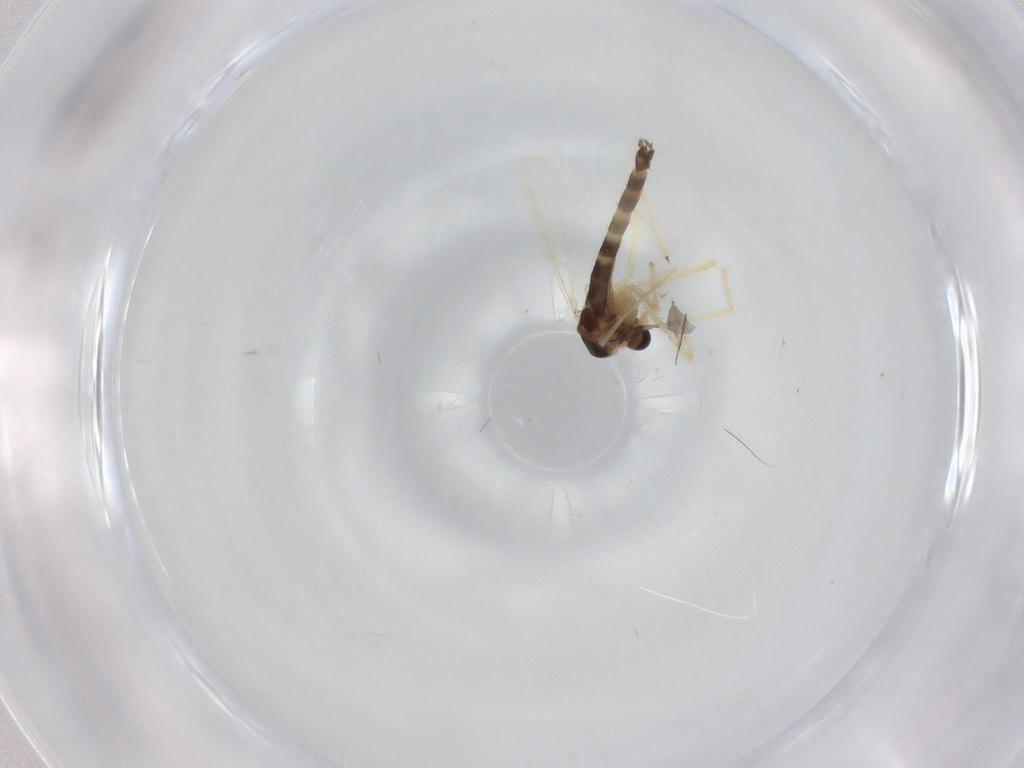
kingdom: Animalia
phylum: Arthropoda
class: Insecta
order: Diptera
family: Chironomidae
